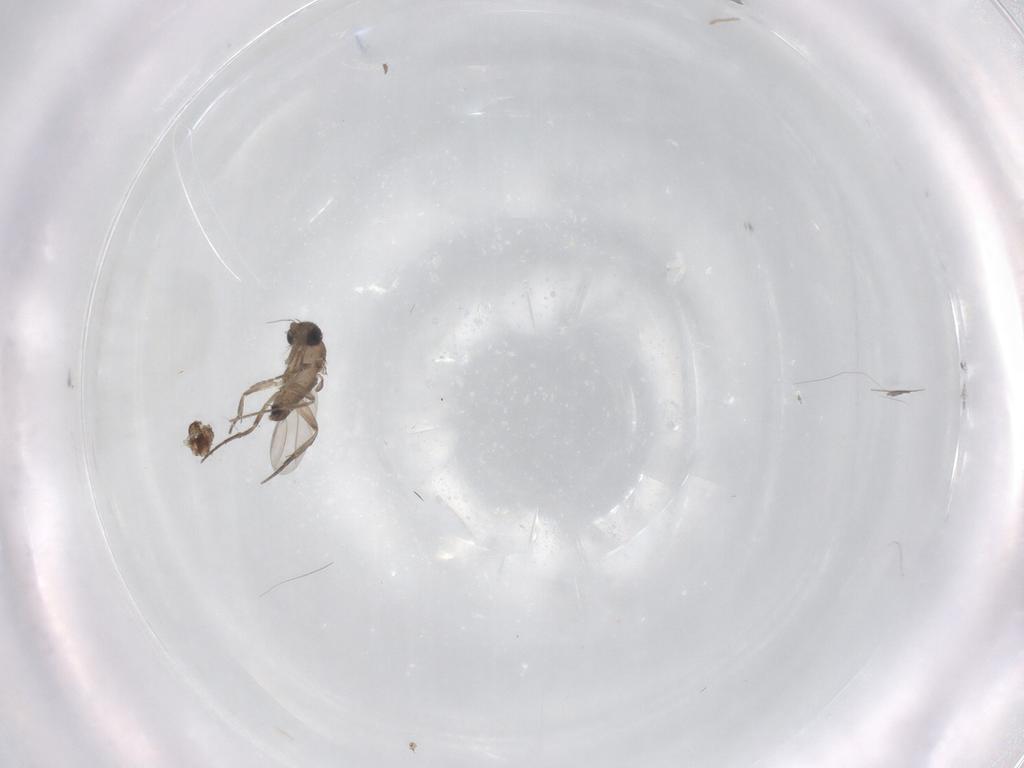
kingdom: Animalia
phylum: Arthropoda
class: Insecta
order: Diptera
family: Phoridae
